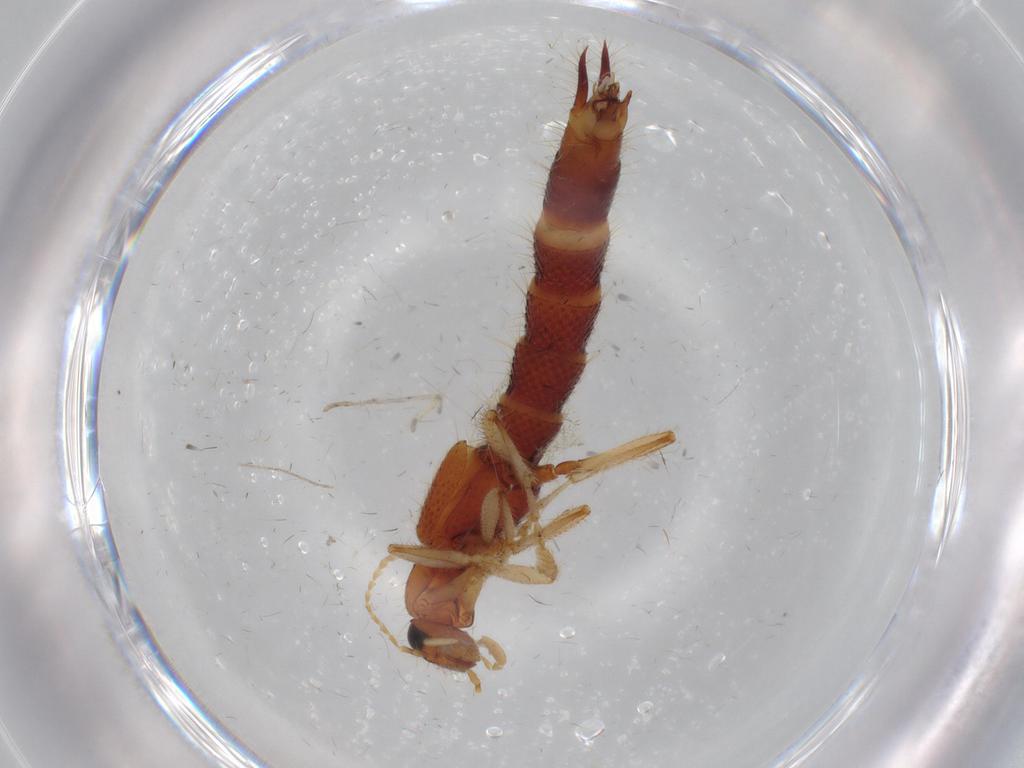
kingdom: Animalia
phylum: Arthropoda
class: Insecta
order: Coleoptera
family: Staphylinidae
